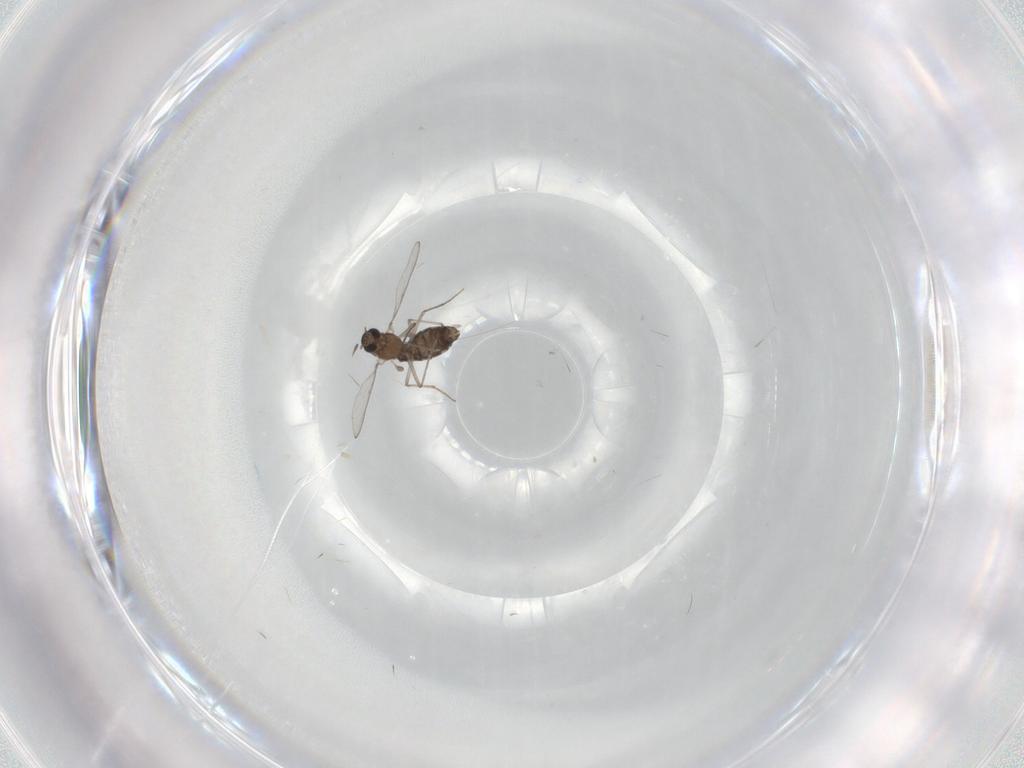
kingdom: Animalia
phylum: Arthropoda
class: Insecta
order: Diptera
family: Chironomidae
